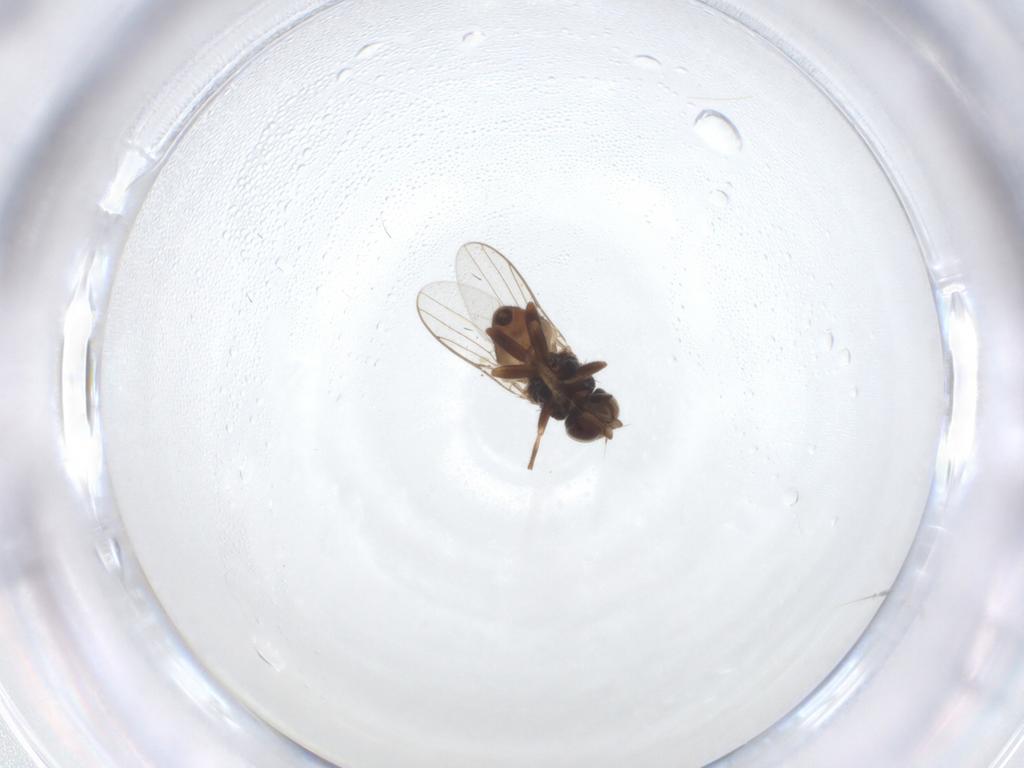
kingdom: Animalia
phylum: Arthropoda
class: Insecta
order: Diptera
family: Chloropidae
